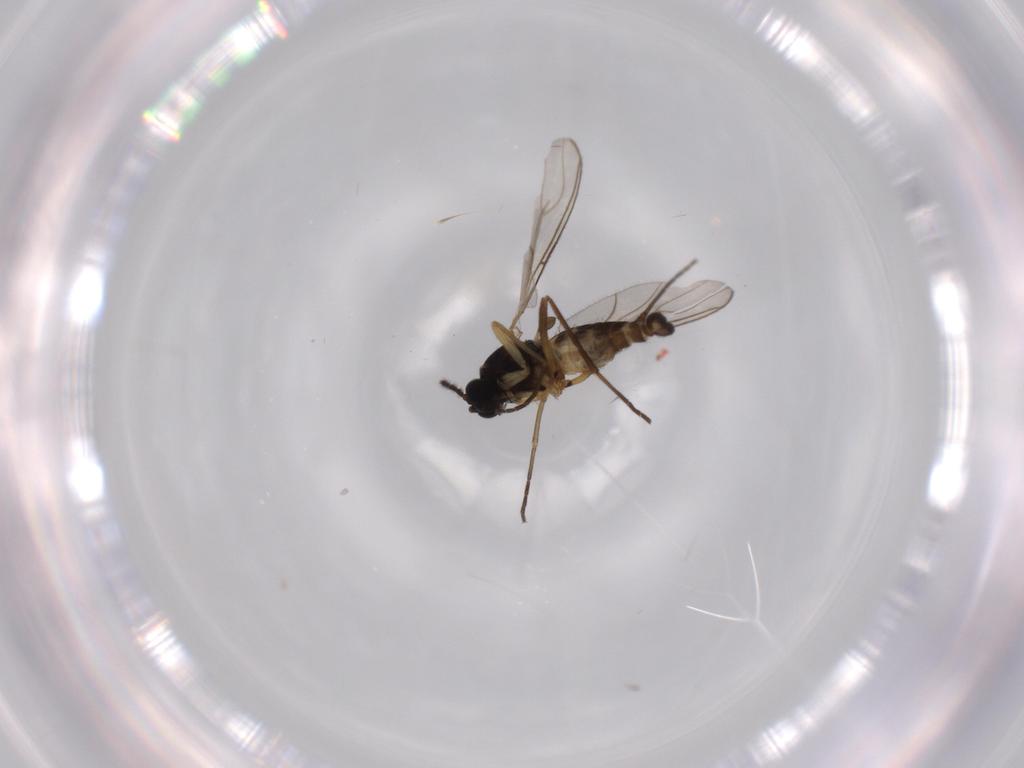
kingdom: Animalia
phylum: Arthropoda
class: Insecta
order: Diptera
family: Sciaridae
